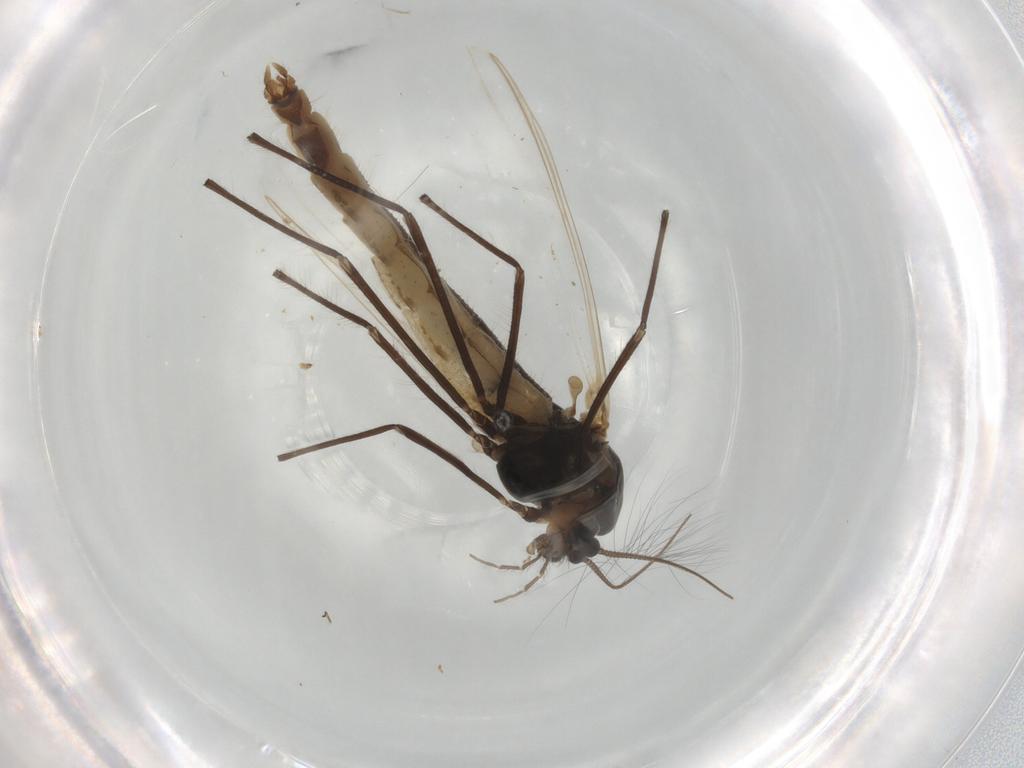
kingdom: Animalia
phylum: Arthropoda
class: Insecta
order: Diptera
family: Chironomidae
